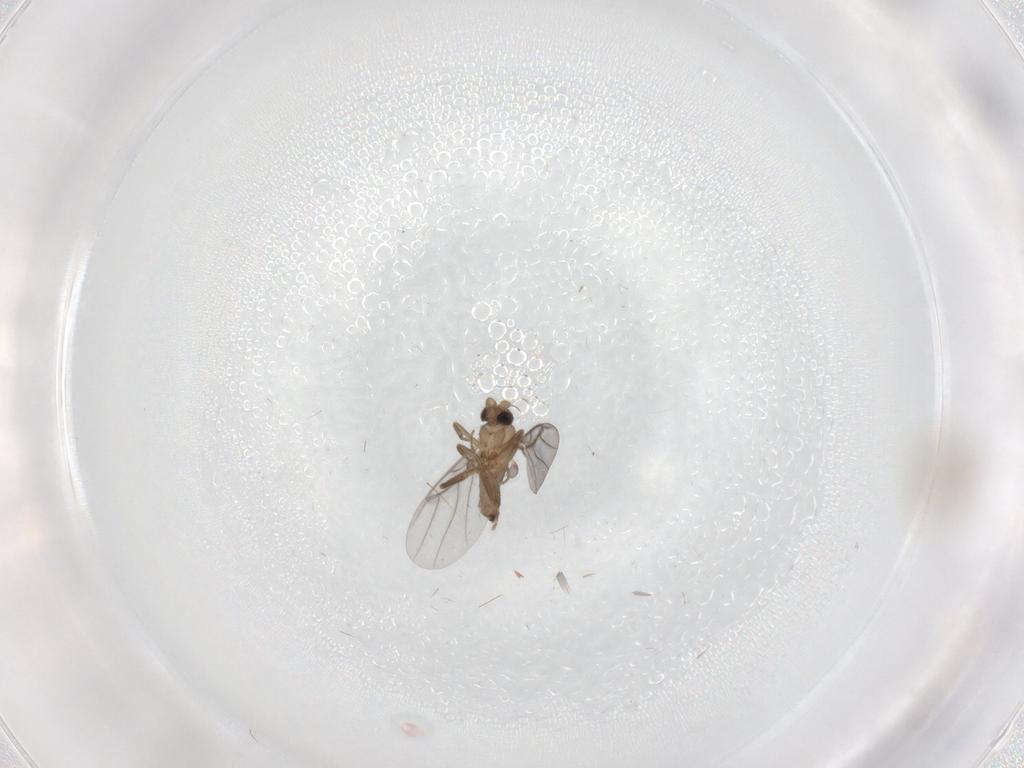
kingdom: Animalia
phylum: Arthropoda
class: Insecta
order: Diptera
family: Cecidomyiidae
